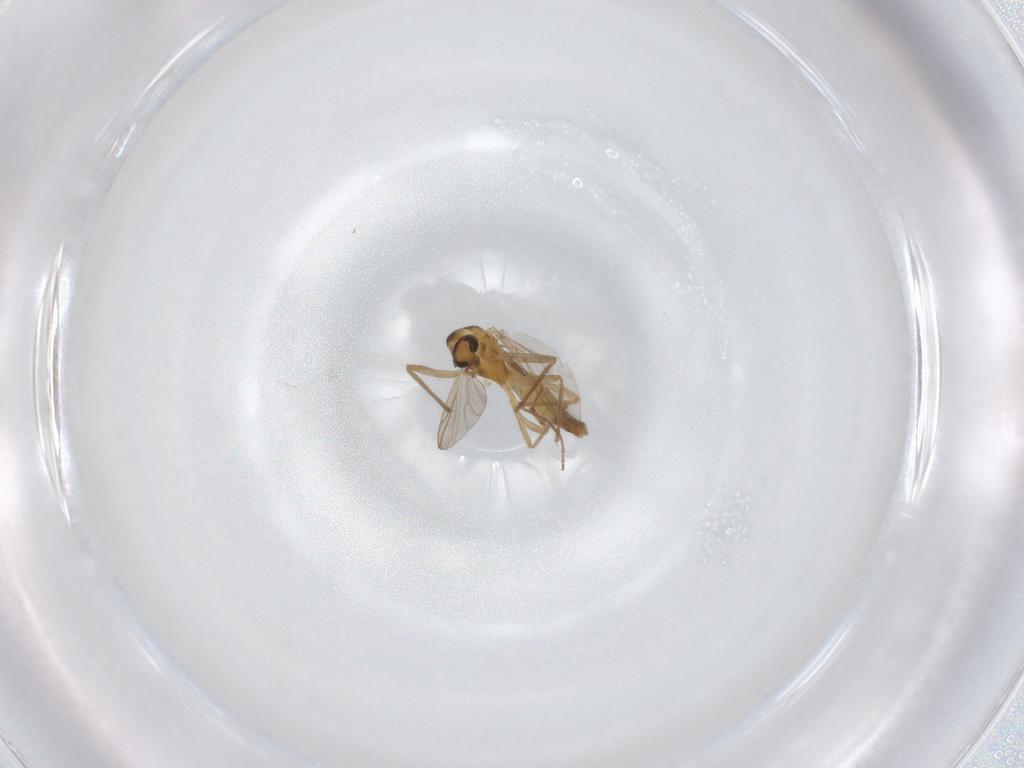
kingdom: Animalia
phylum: Arthropoda
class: Insecta
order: Diptera
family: Chironomidae
